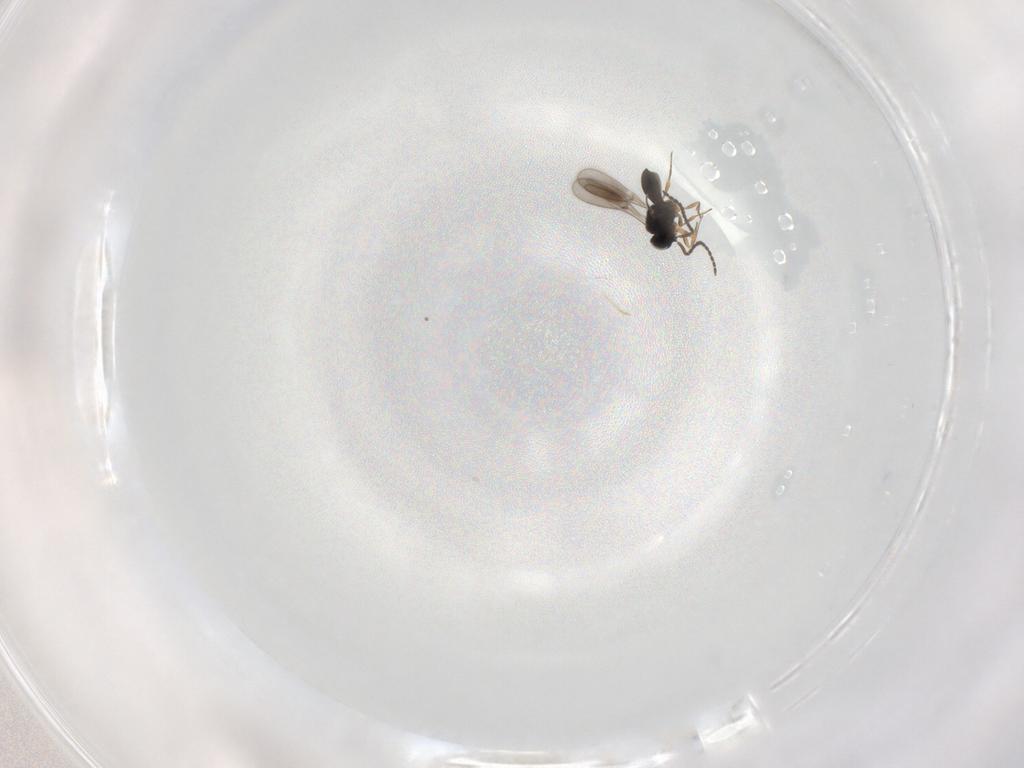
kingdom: Animalia
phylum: Arthropoda
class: Insecta
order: Hymenoptera
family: Scelionidae
